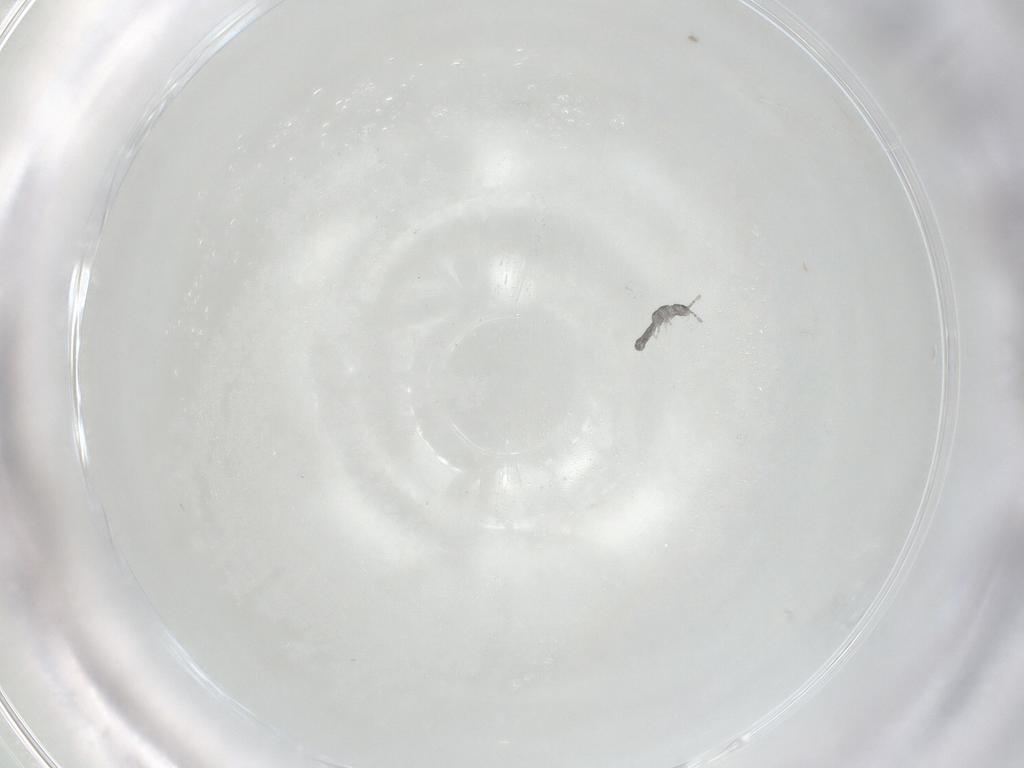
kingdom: Animalia
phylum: Arthropoda
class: Collembola
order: Entomobryomorpha
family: Isotomidae
